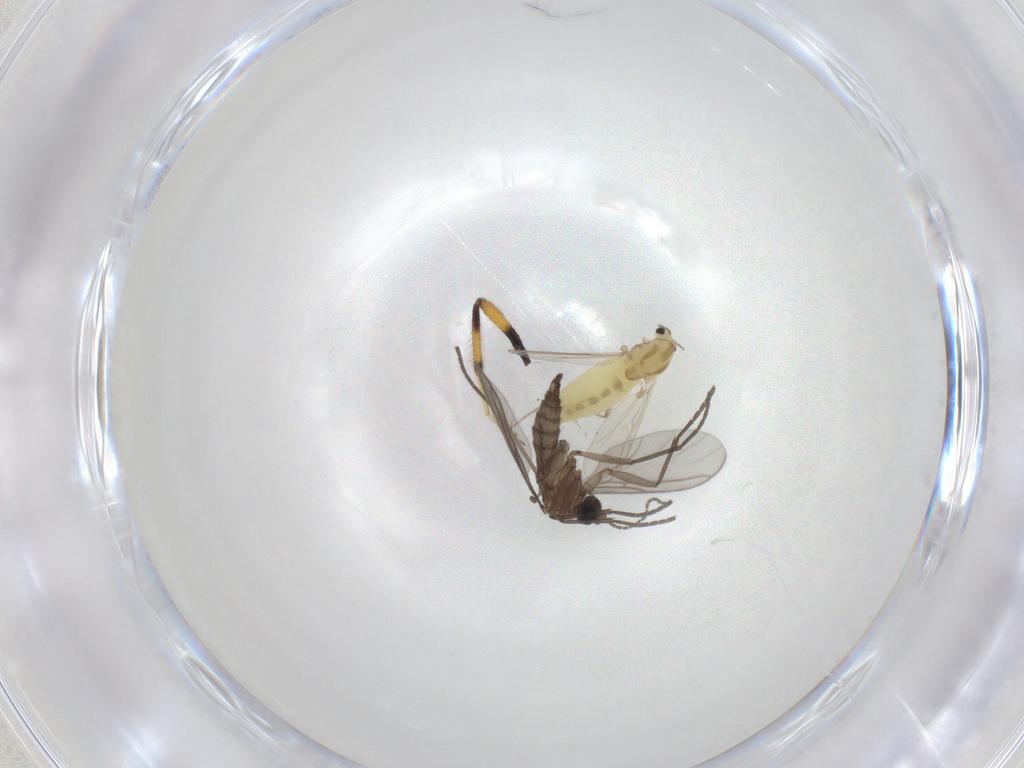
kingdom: Animalia
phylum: Arthropoda
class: Insecta
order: Diptera
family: Ceratopogonidae
